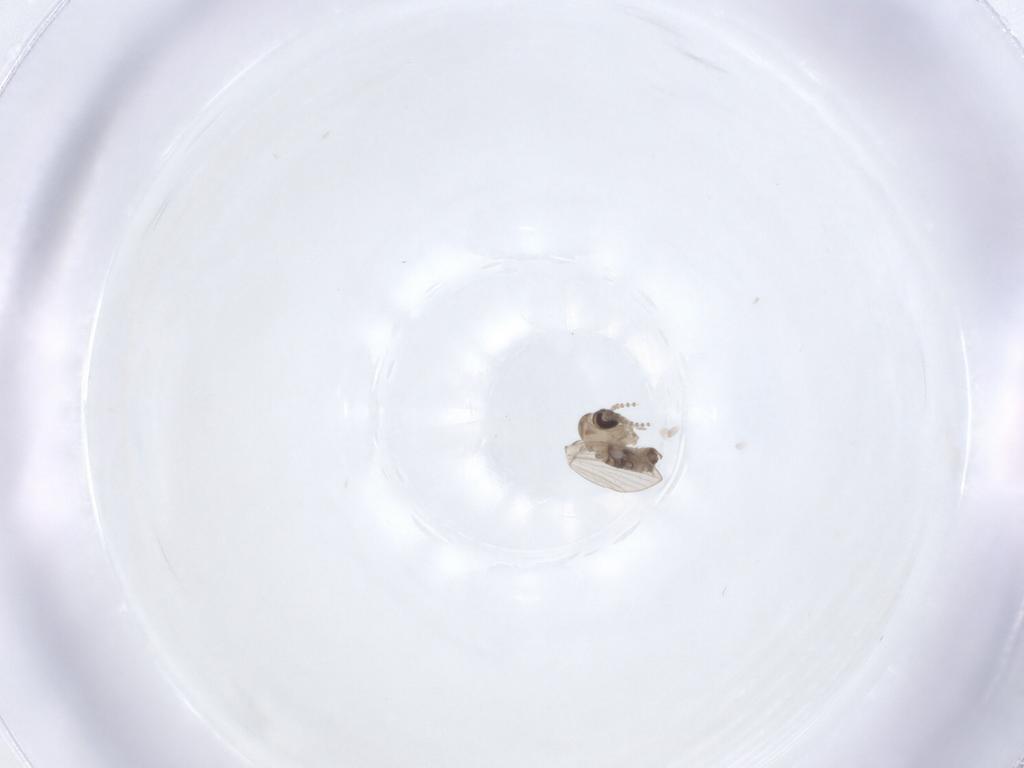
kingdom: Animalia
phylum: Arthropoda
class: Insecta
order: Diptera
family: Psychodidae
